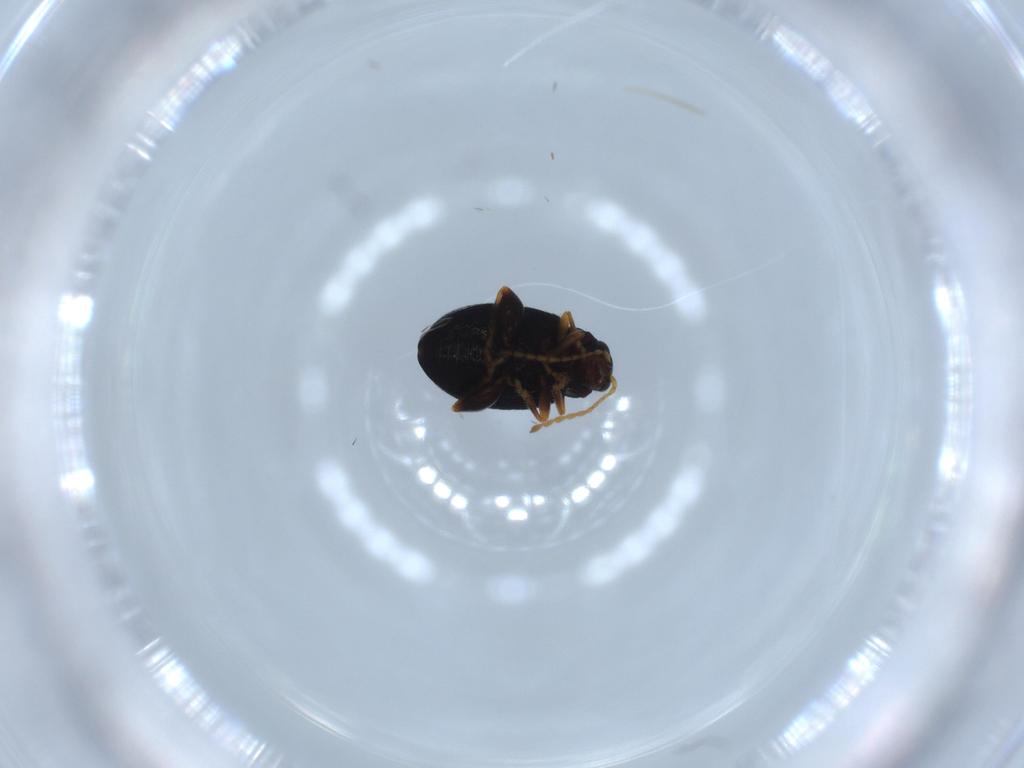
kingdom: Animalia
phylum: Arthropoda
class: Insecta
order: Coleoptera
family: Chrysomelidae
